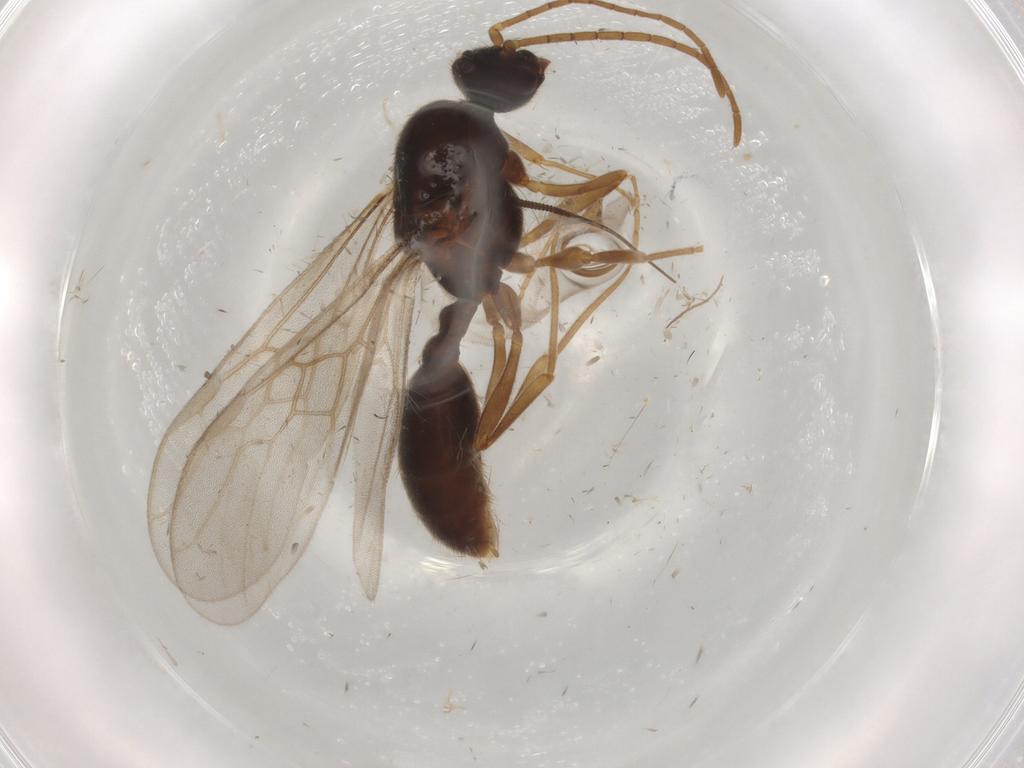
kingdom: Animalia
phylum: Arthropoda
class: Insecta
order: Hymenoptera
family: Formicidae
